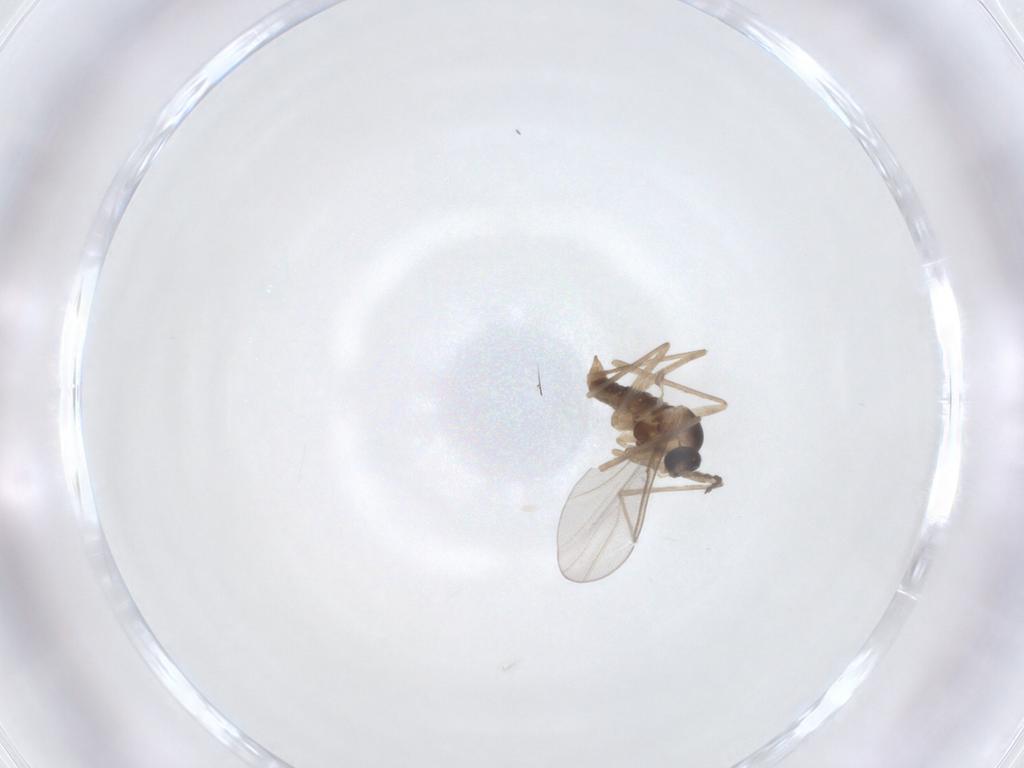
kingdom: Animalia
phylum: Arthropoda
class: Insecta
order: Diptera
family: Cecidomyiidae
